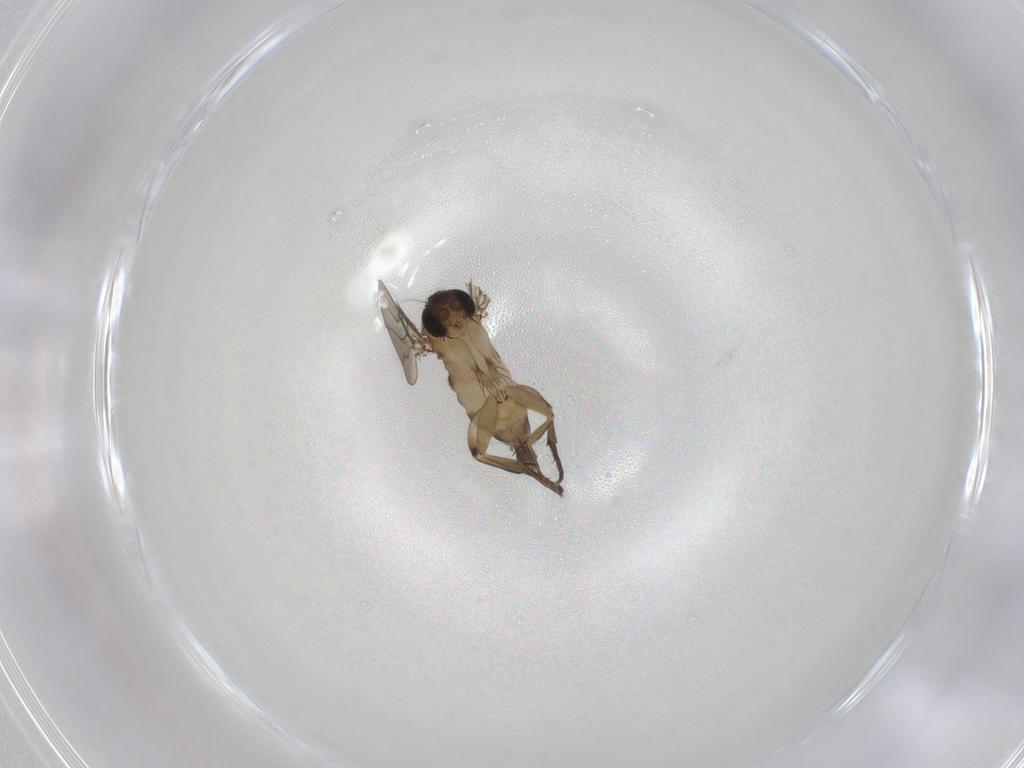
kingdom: Animalia
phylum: Arthropoda
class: Insecta
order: Diptera
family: Phoridae
